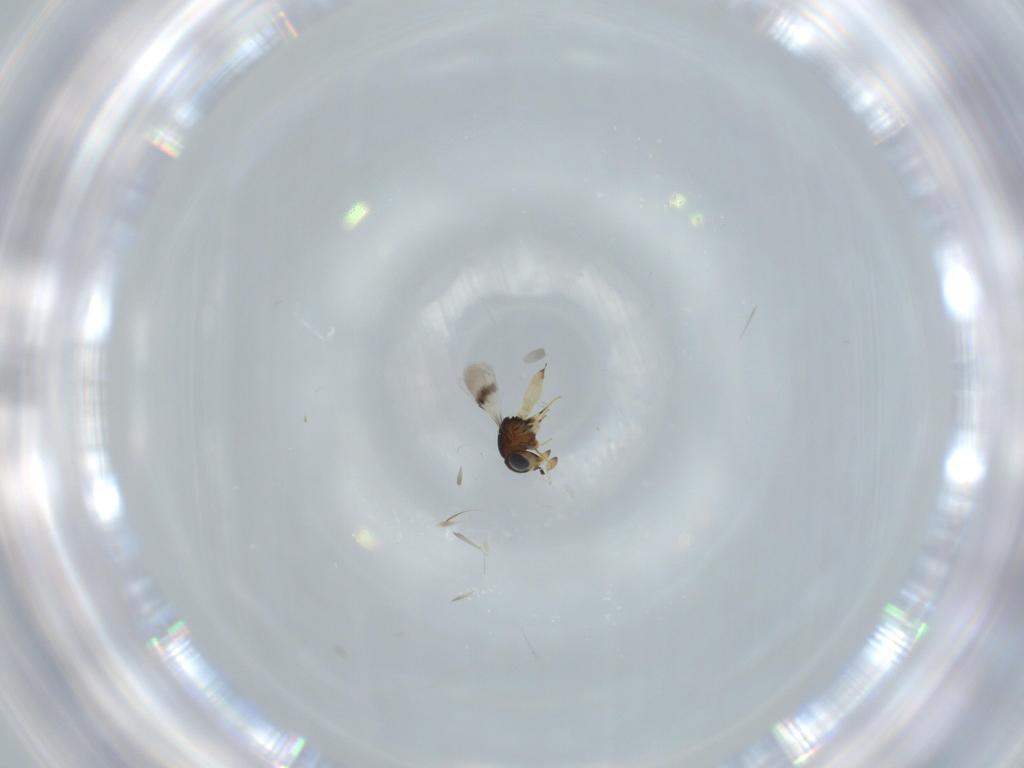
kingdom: Animalia
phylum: Arthropoda
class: Insecta
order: Hymenoptera
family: Scelionidae
